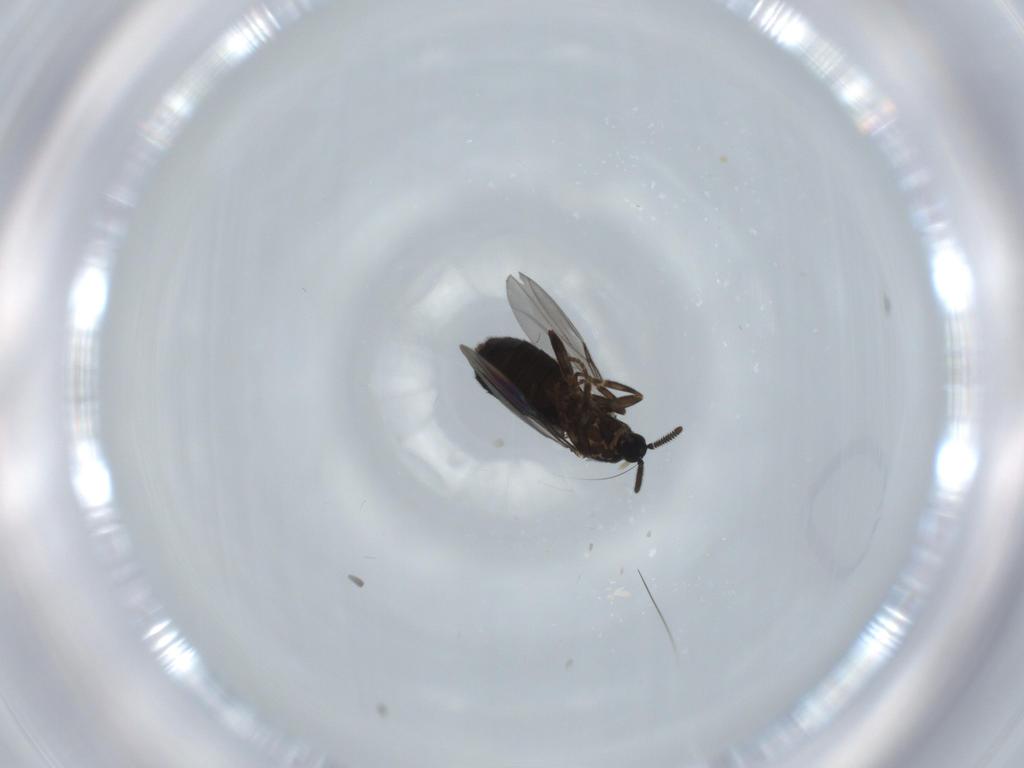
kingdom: Animalia
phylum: Arthropoda
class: Insecta
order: Diptera
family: Scatopsidae
